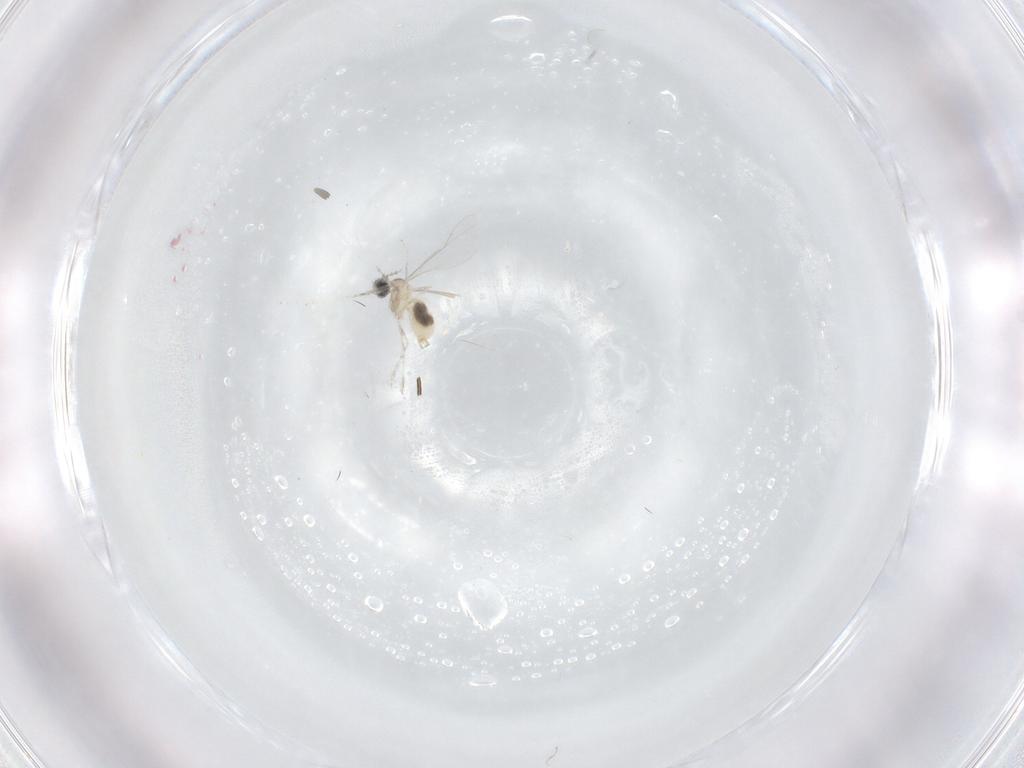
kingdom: Animalia
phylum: Arthropoda
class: Insecta
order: Diptera
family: Cecidomyiidae
